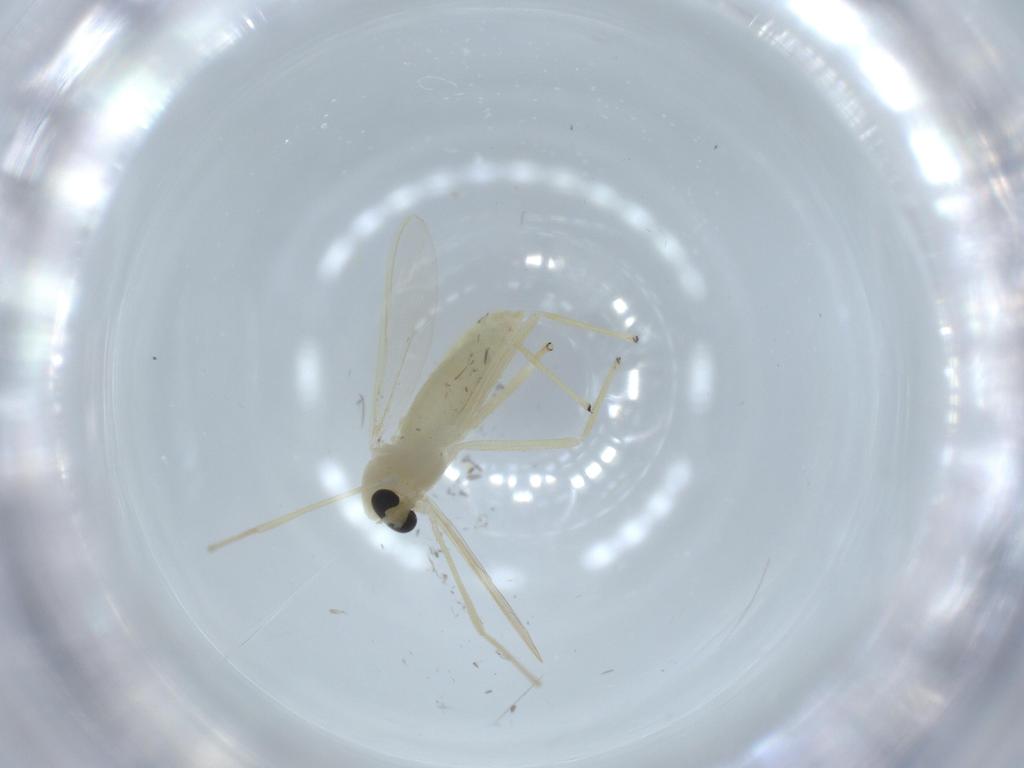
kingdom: Animalia
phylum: Arthropoda
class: Insecta
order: Diptera
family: Chironomidae
